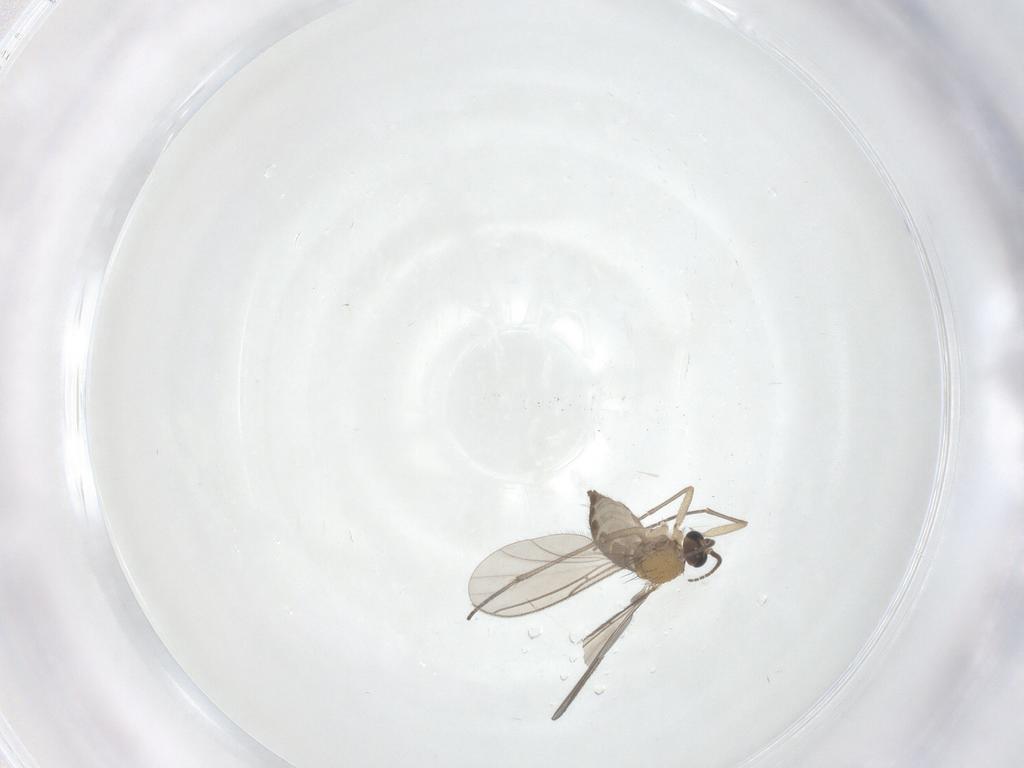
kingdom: Animalia
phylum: Arthropoda
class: Insecta
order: Diptera
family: Sciaridae
